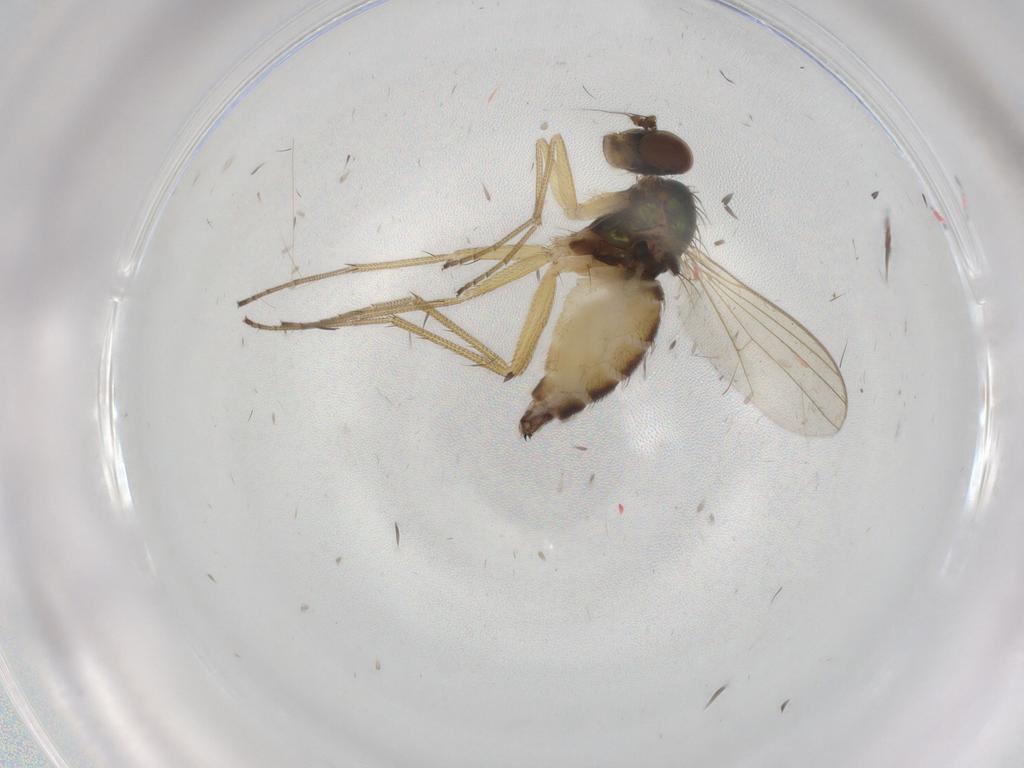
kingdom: Animalia
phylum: Arthropoda
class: Insecta
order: Diptera
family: Dolichopodidae
